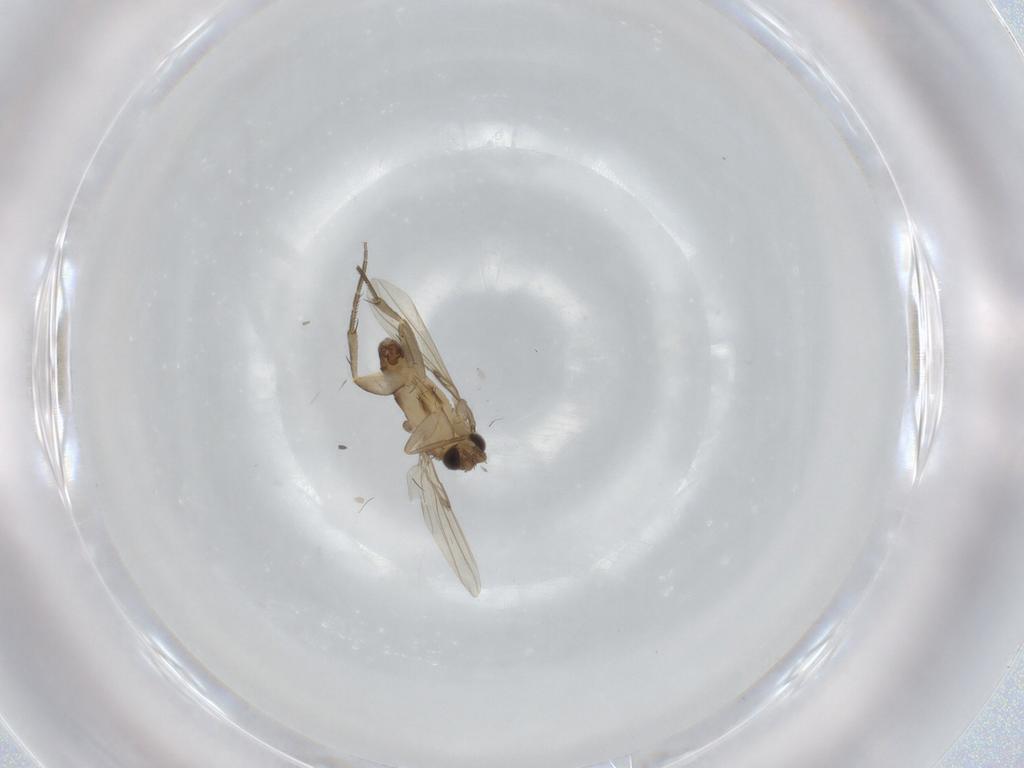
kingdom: Animalia
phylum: Arthropoda
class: Insecta
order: Diptera
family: Phoridae
